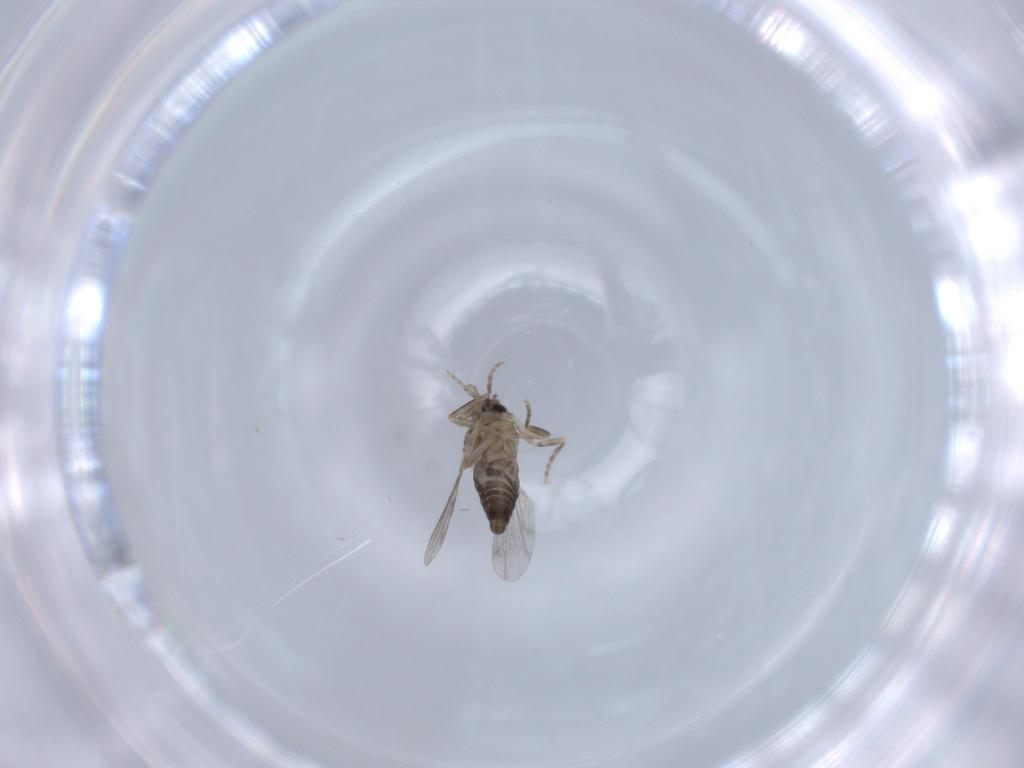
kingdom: Animalia
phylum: Arthropoda
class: Insecta
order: Diptera
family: Ceratopogonidae
